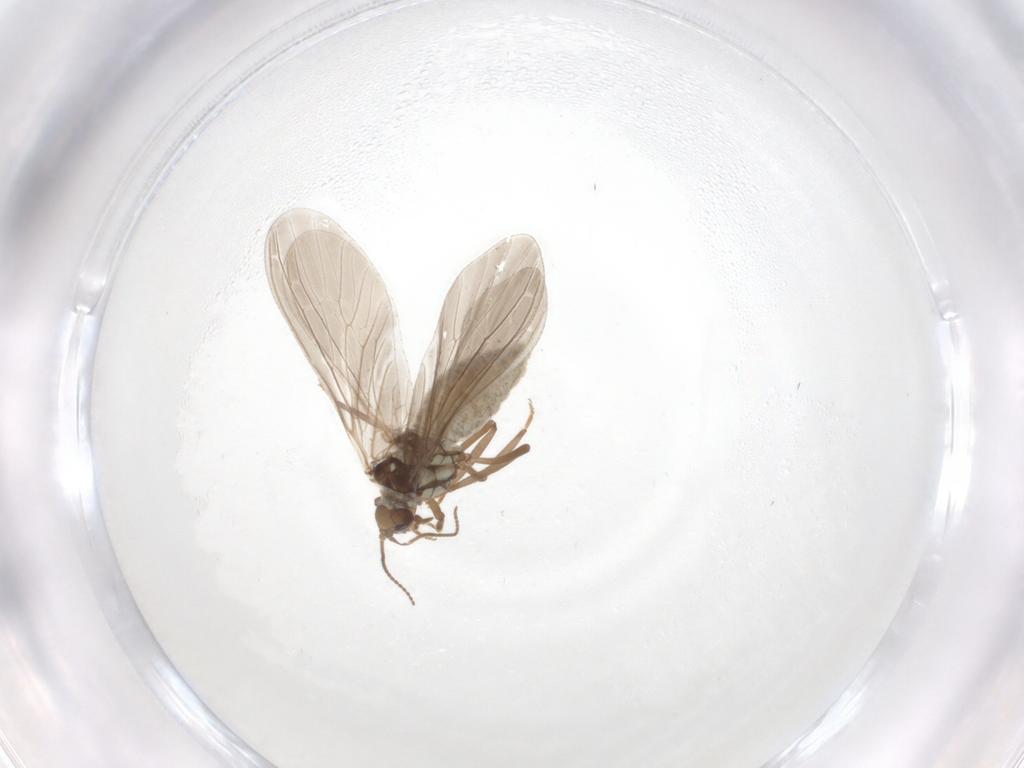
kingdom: Animalia
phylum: Arthropoda
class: Insecta
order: Neuroptera
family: Coniopterygidae
